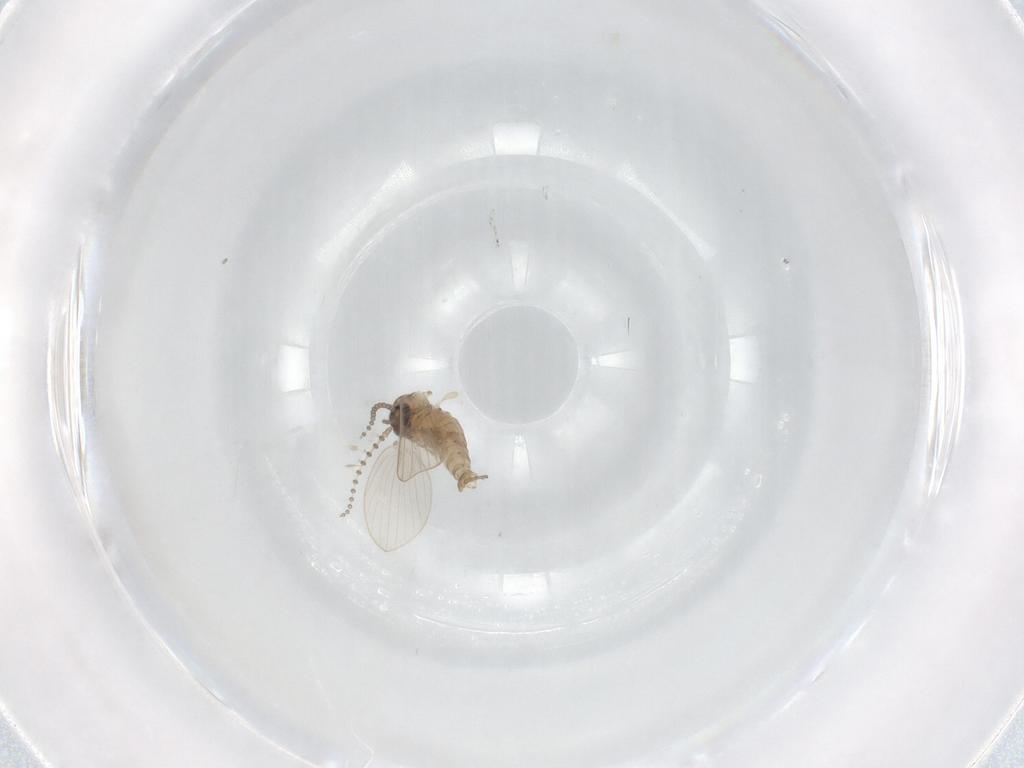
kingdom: Animalia
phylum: Arthropoda
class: Insecta
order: Diptera
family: Psychodidae
